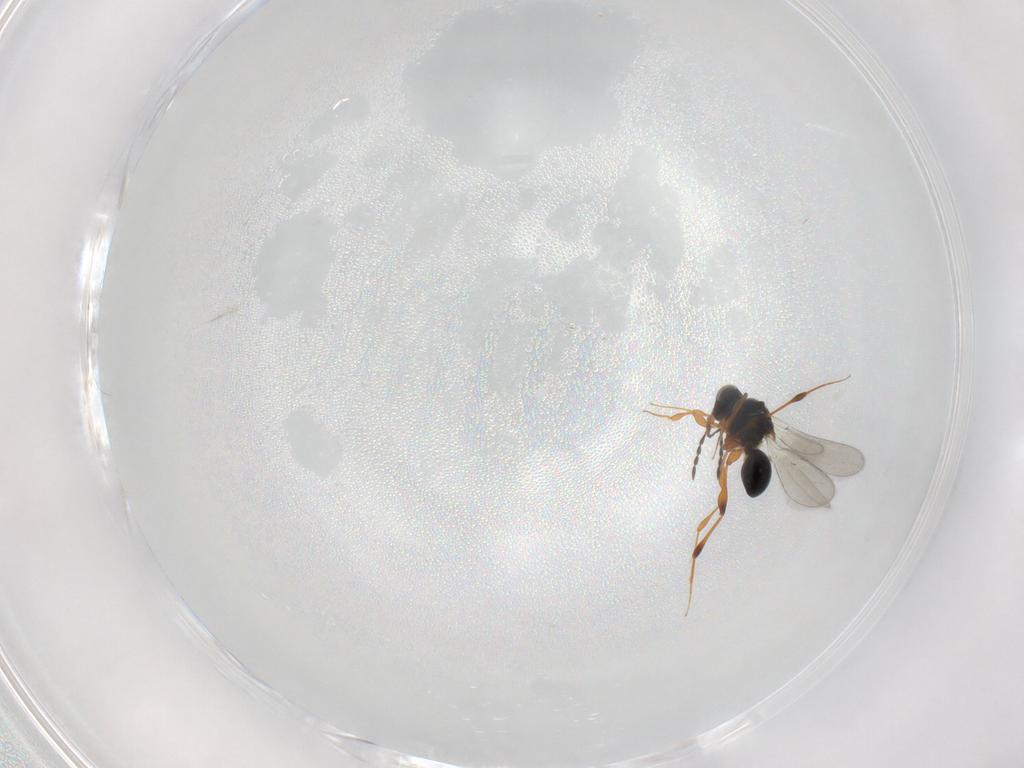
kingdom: Animalia
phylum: Arthropoda
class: Insecta
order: Hymenoptera
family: Platygastridae
